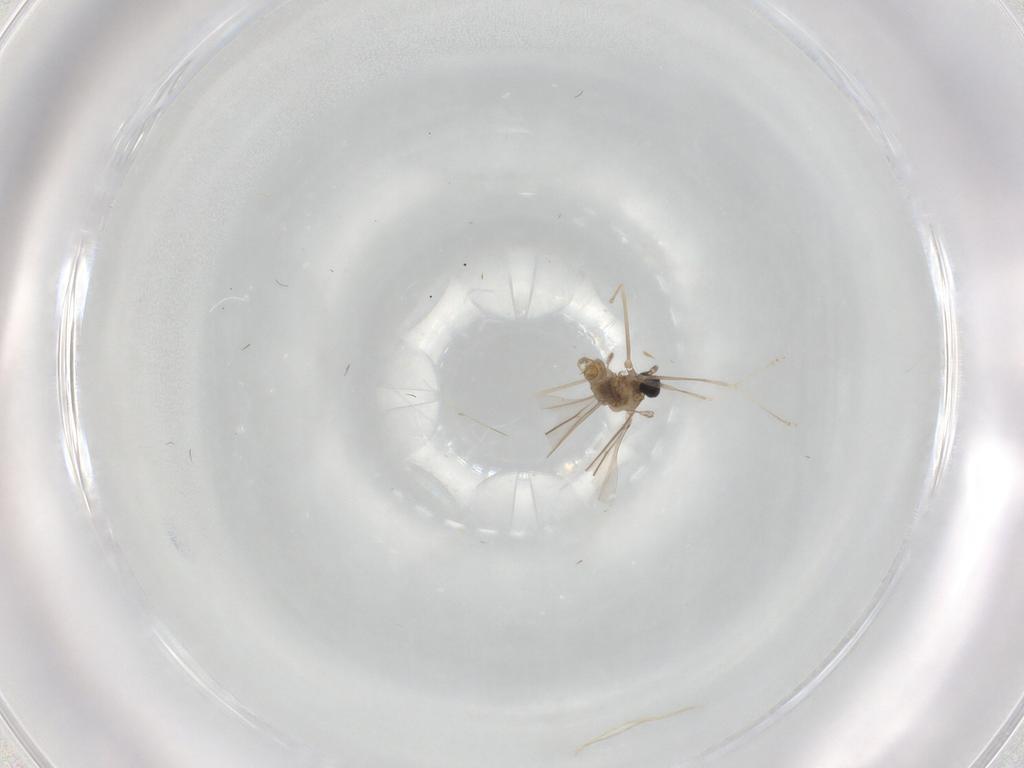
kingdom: Animalia
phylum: Arthropoda
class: Insecta
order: Diptera
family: Cecidomyiidae
